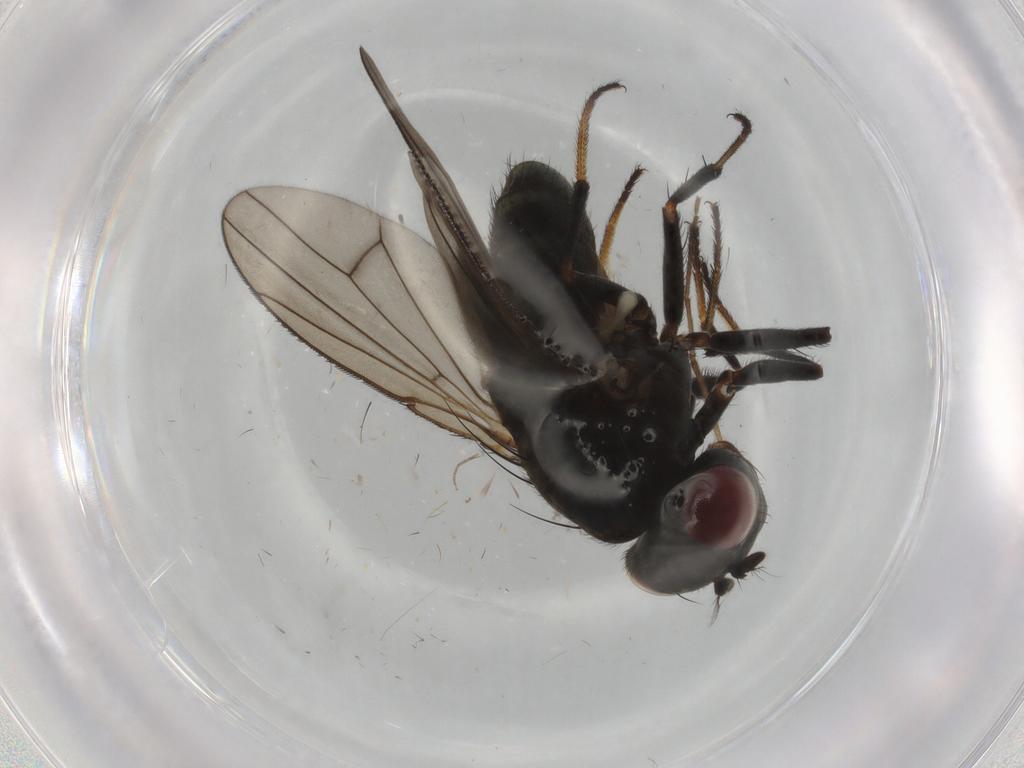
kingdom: Animalia
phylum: Arthropoda
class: Insecta
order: Diptera
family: Ephydridae
